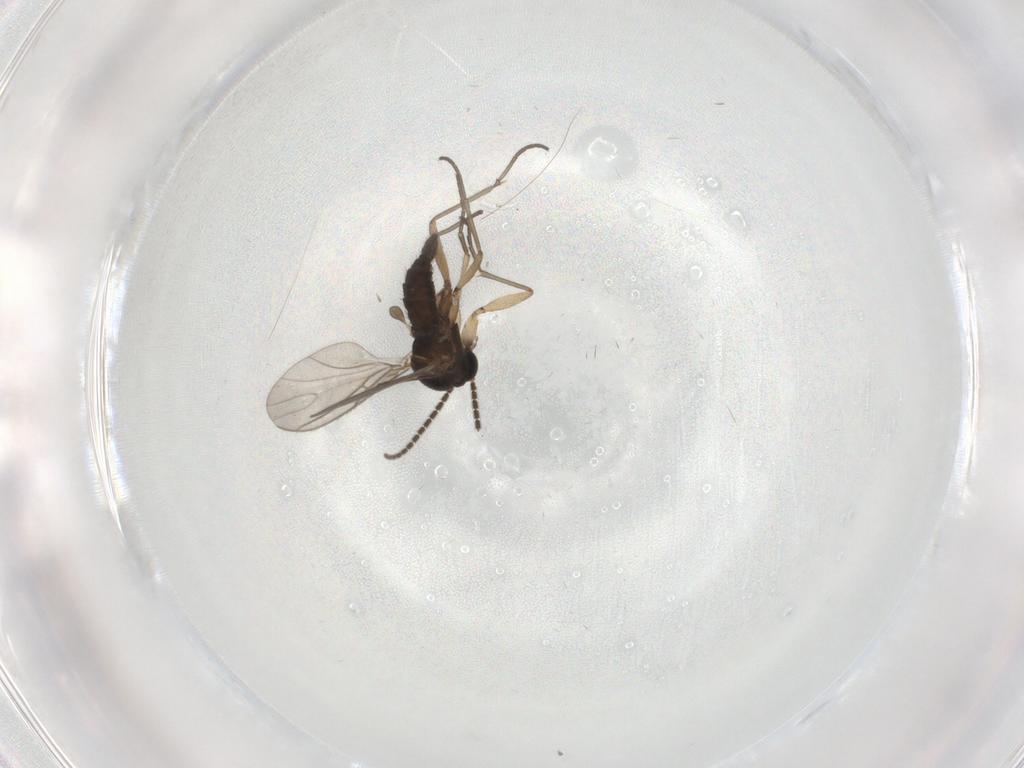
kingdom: Animalia
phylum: Arthropoda
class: Insecta
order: Diptera
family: Sciaridae
